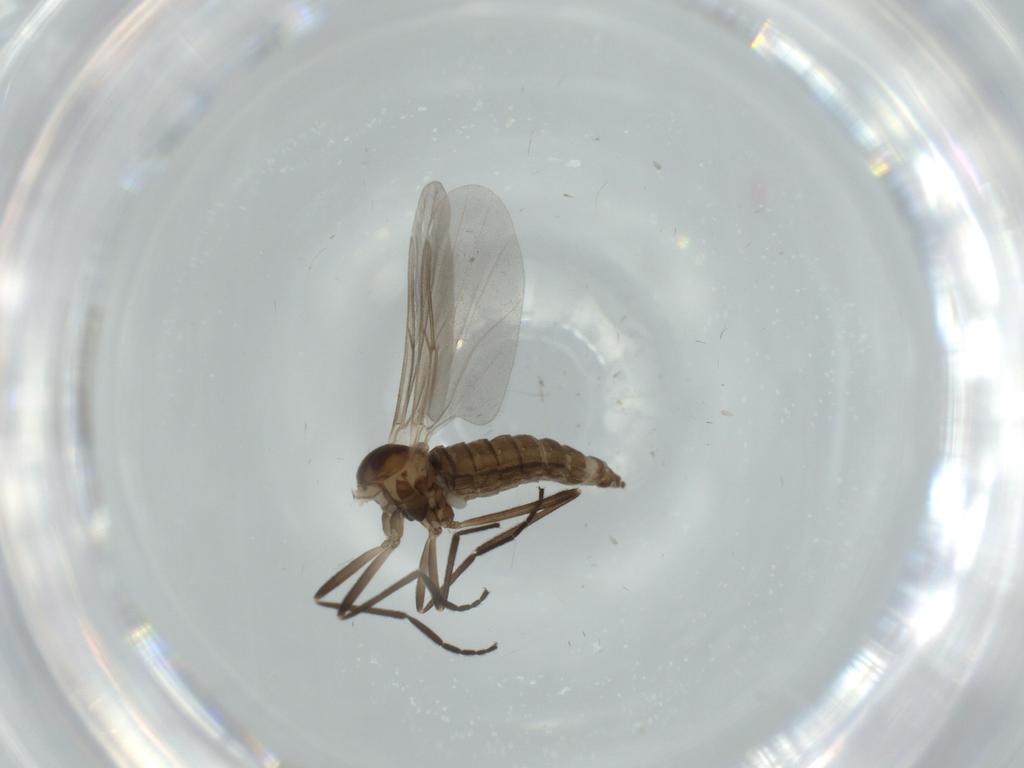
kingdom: Animalia
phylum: Arthropoda
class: Insecta
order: Diptera
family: Cecidomyiidae
